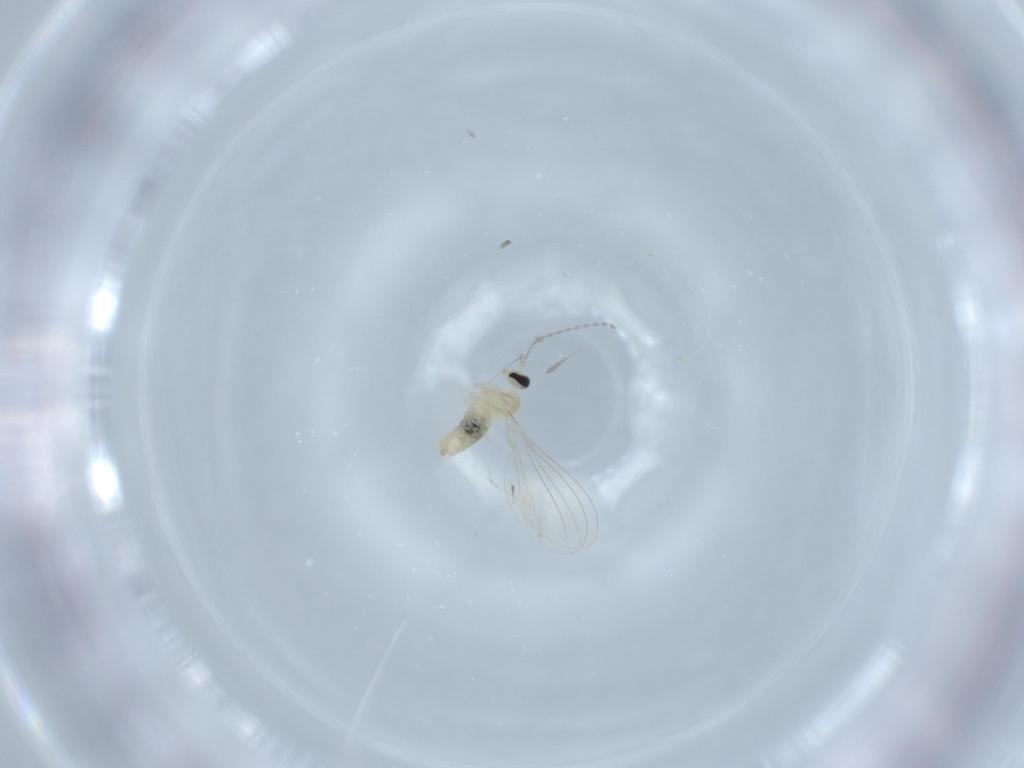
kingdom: Animalia
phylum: Arthropoda
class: Insecta
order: Diptera
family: Cecidomyiidae
